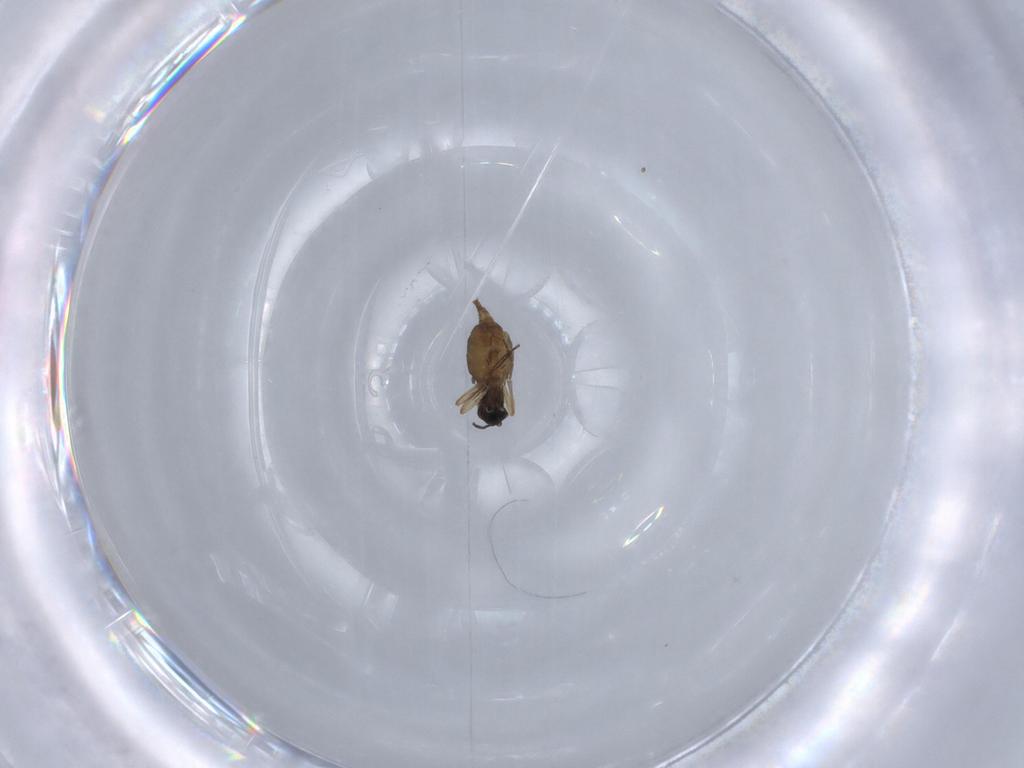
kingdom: Animalia
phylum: Arthropoda
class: Insecta
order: Diptera
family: Sciaridae
